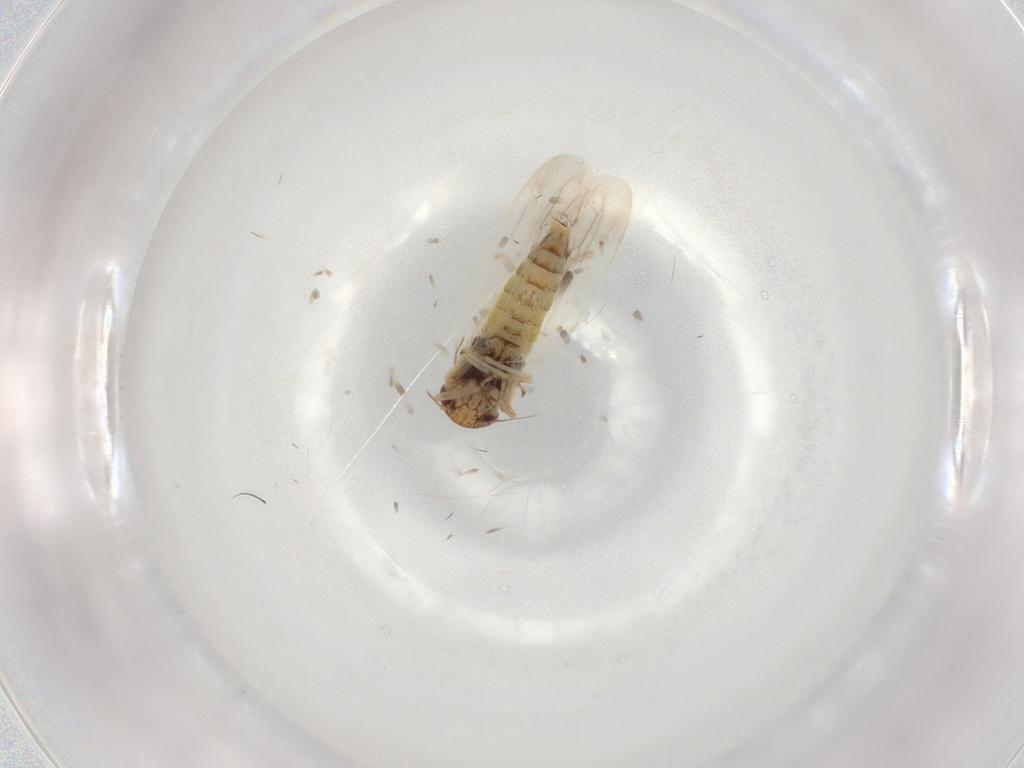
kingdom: Animalia
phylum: Arthropoda
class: Insecta
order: Hemiptera
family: Cicadellidae
